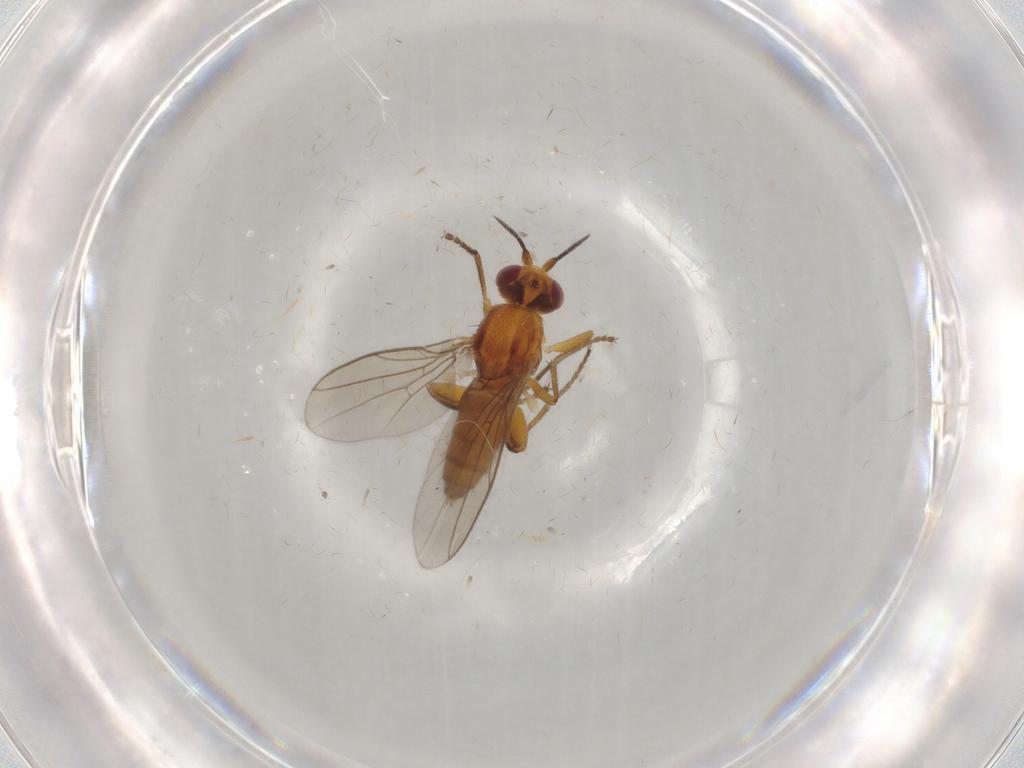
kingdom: Animalia
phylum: Arthropoda
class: Insecta
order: Diptera
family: Chloropidae
